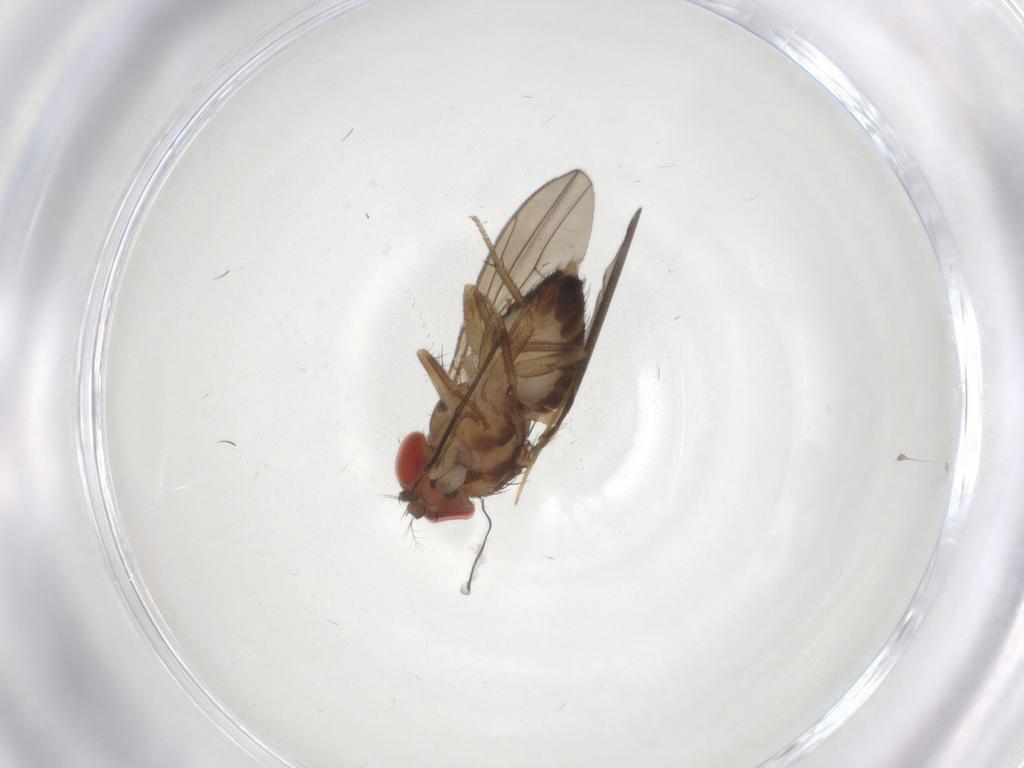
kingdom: Animalia
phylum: Arthropoda
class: Insecta
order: Diptera
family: Drosophilidae
